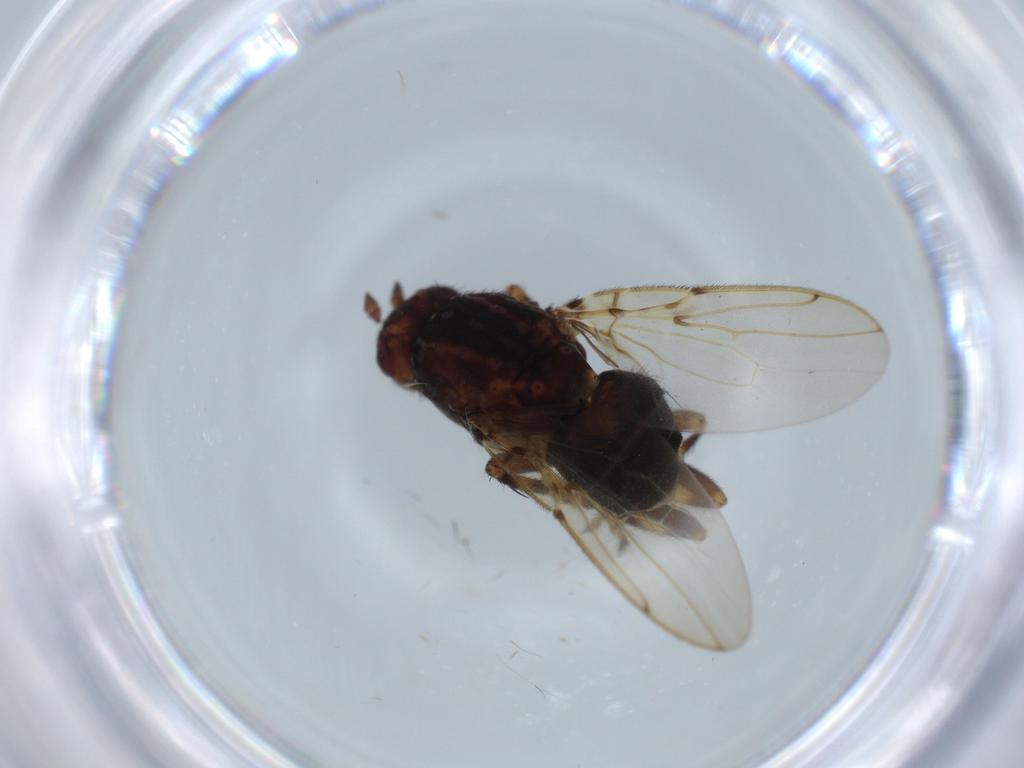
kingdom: Animalia
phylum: Arthropoda
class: Insecta
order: Diptera
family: Sphaeroceridae
